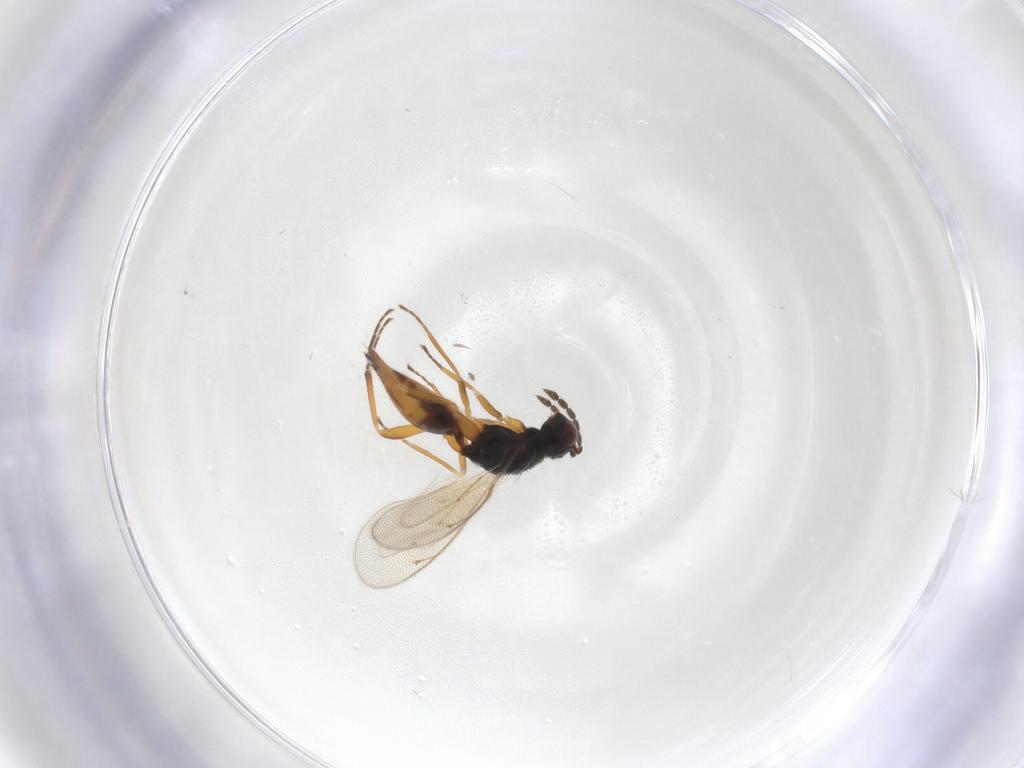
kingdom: Animalia
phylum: Arthropoda
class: Insecta
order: Hymenoptera
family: Eulophidae
